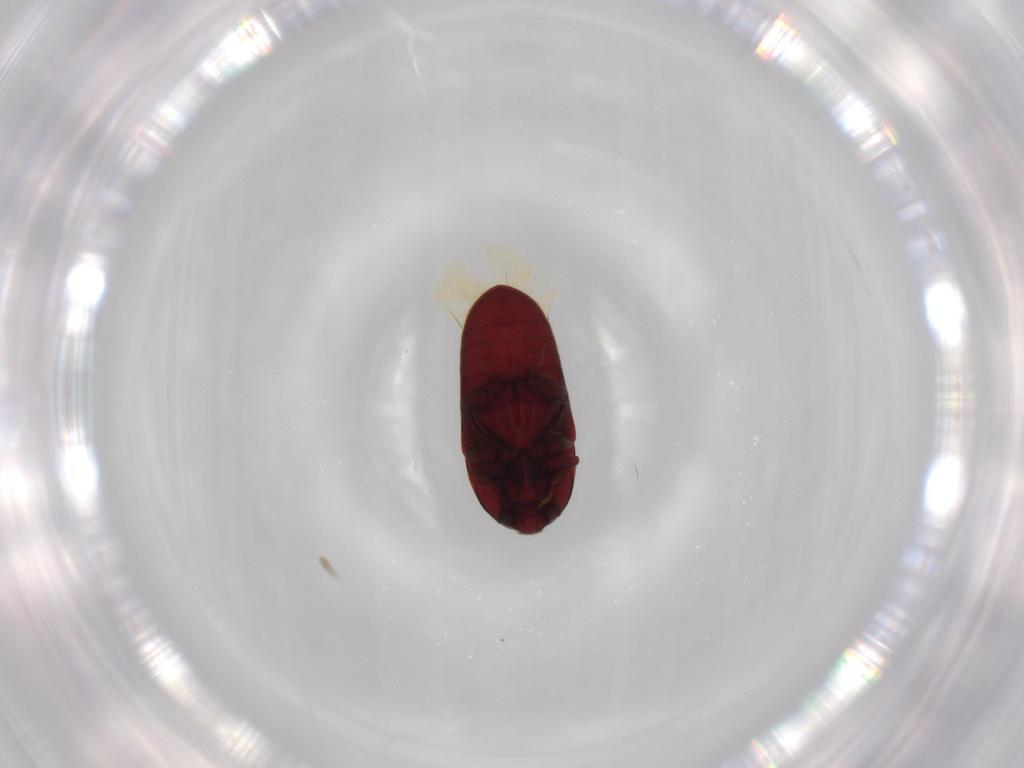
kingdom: Animalia
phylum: Arthropoda
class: Insecta
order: Coleoptera
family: Throscidae
